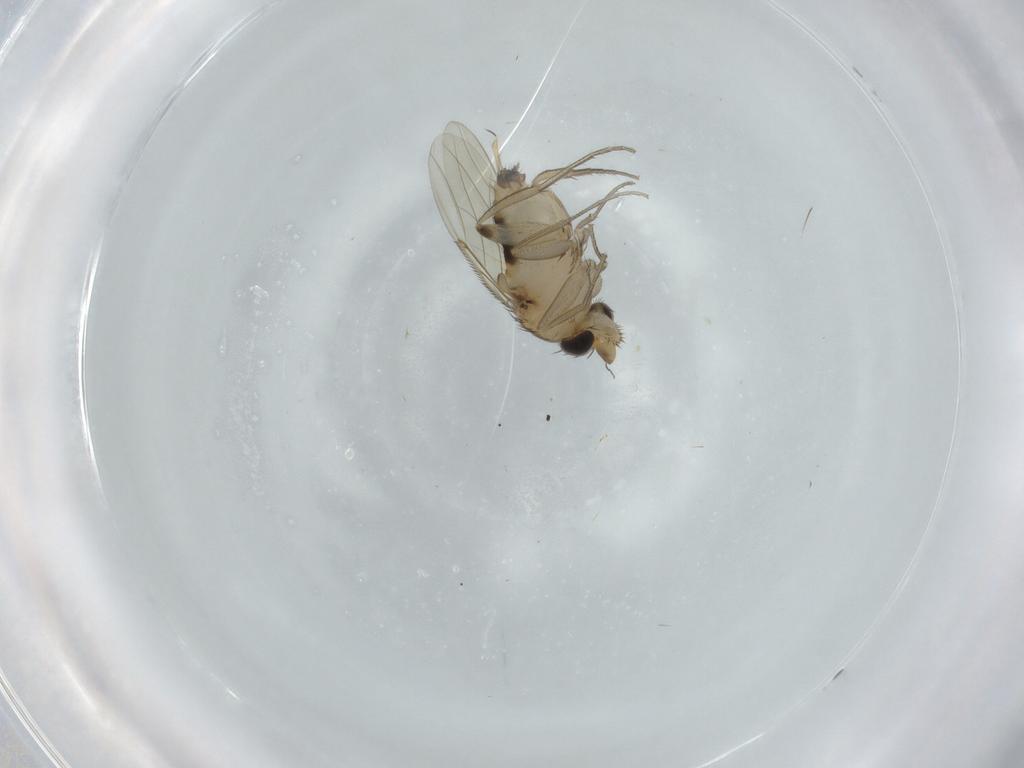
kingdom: Animalia
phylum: Arthropoda
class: Insecta
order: Diptera
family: Phoridae
